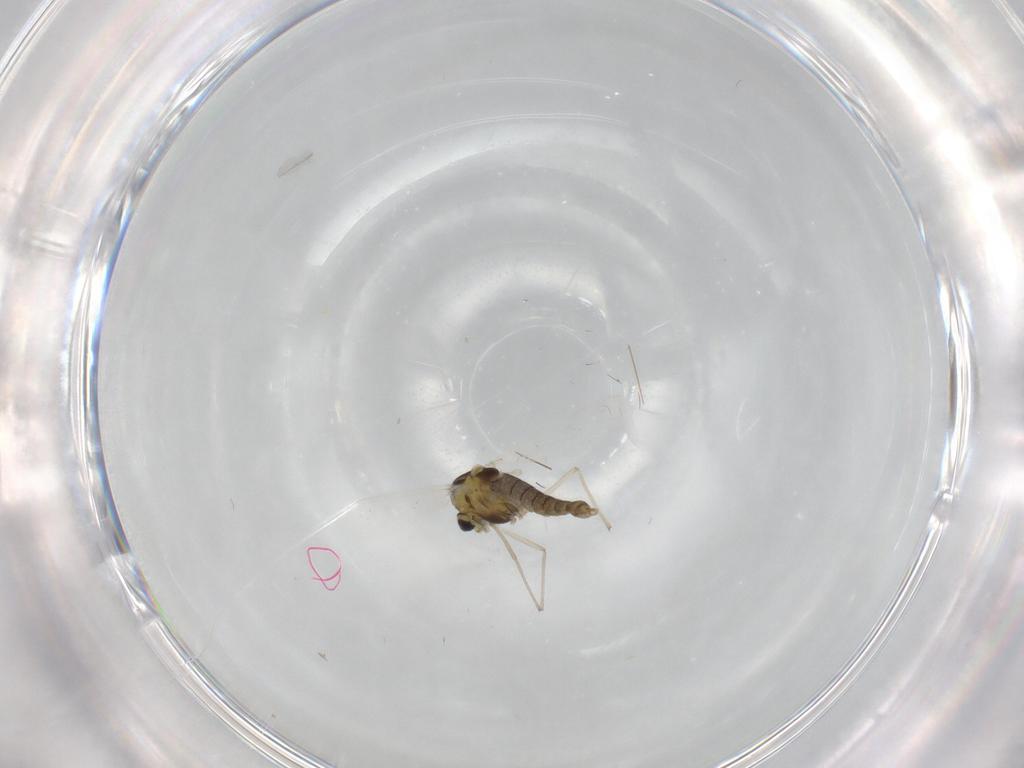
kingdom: Animalia
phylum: Arthropoda
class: Insecta
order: Diptera
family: Chironomidae
